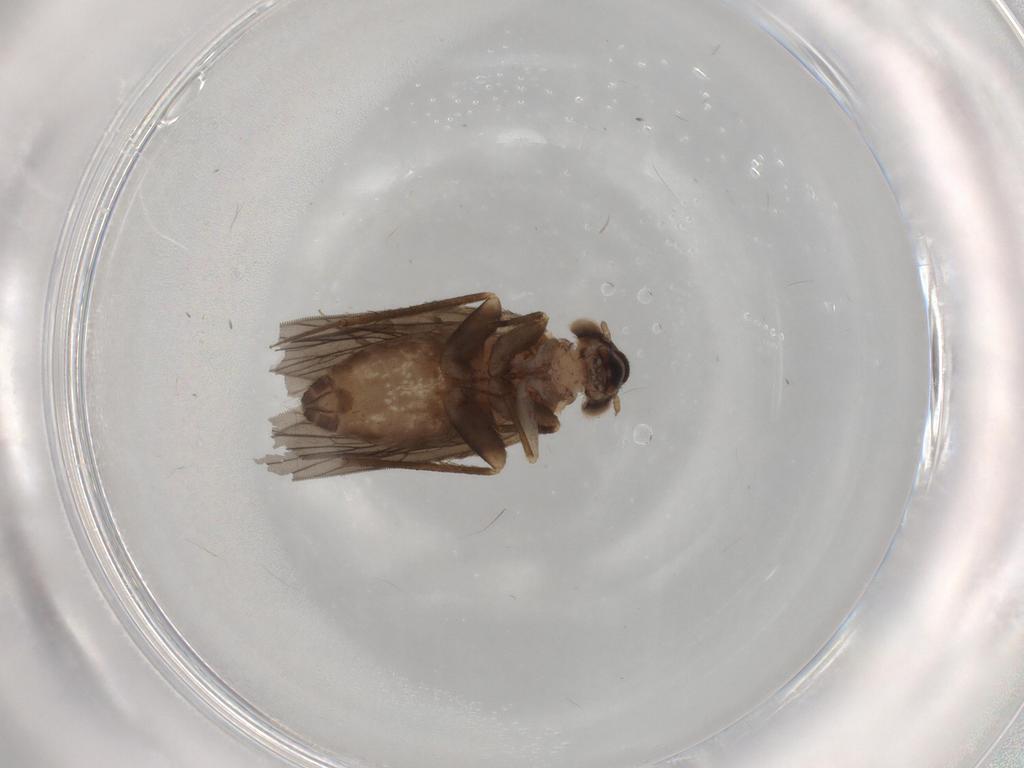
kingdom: Animalia
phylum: Arthropoda
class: Insecta
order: Psocodea
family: Lepidopsocidae
